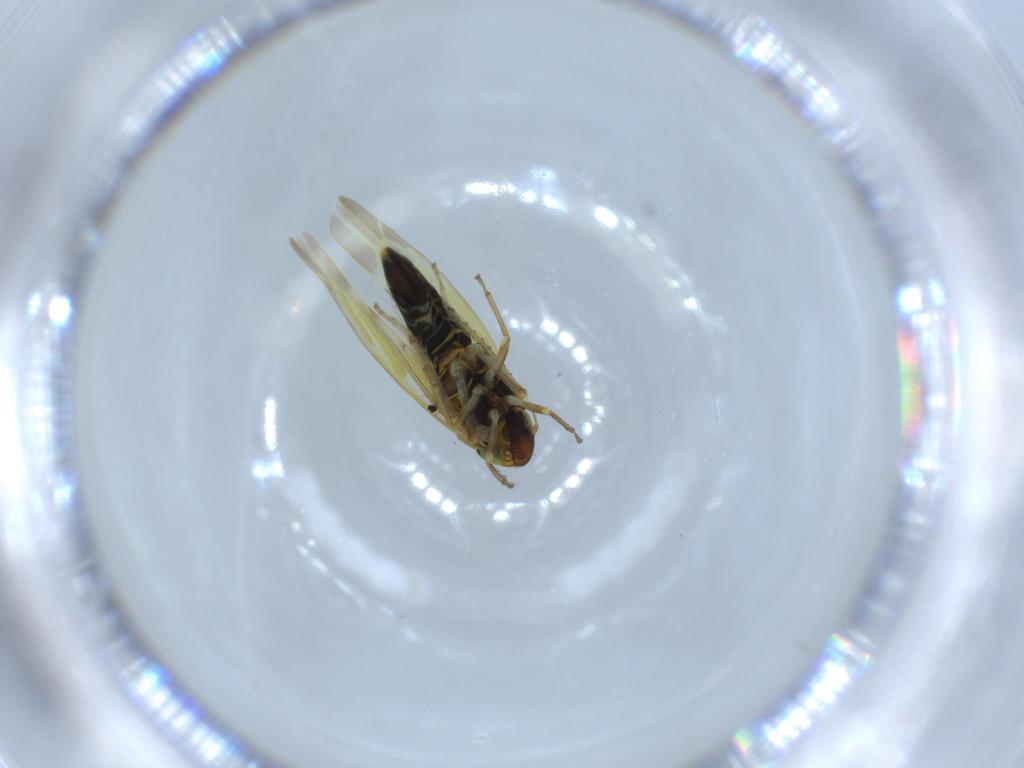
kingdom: Animalia
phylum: Arthropoda
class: Insecta
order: Hemiptera
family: Cicadellidae
